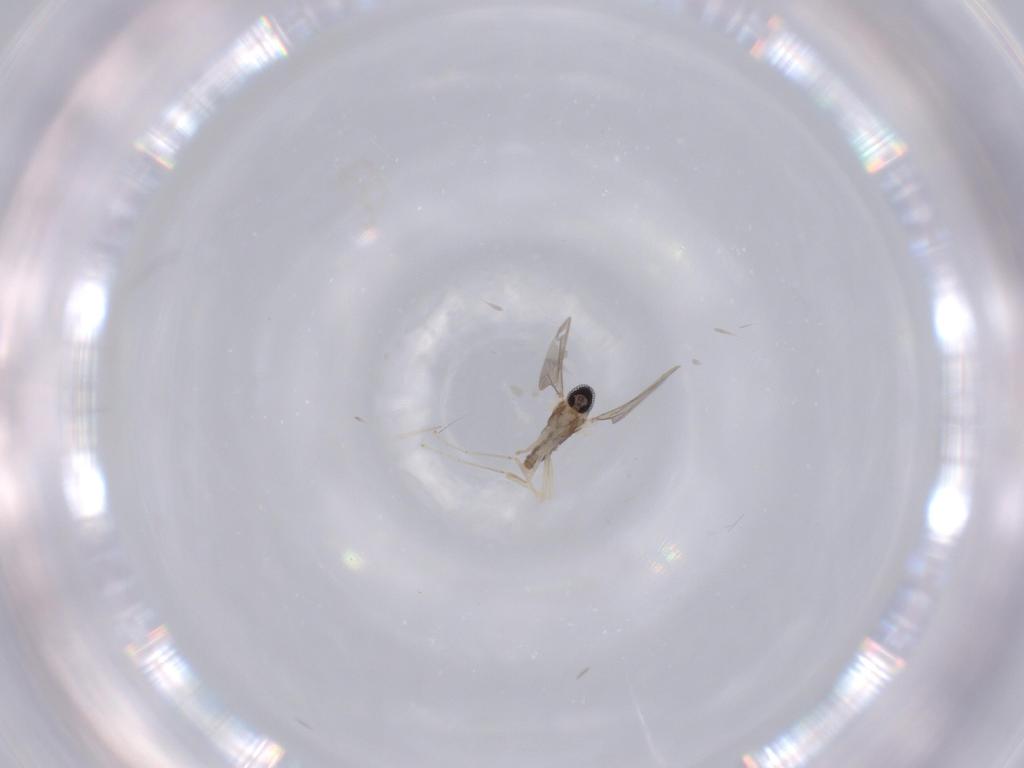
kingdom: Animalia
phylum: Arthropoda
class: Insecta
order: Diptera
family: Cecidomyiidae
